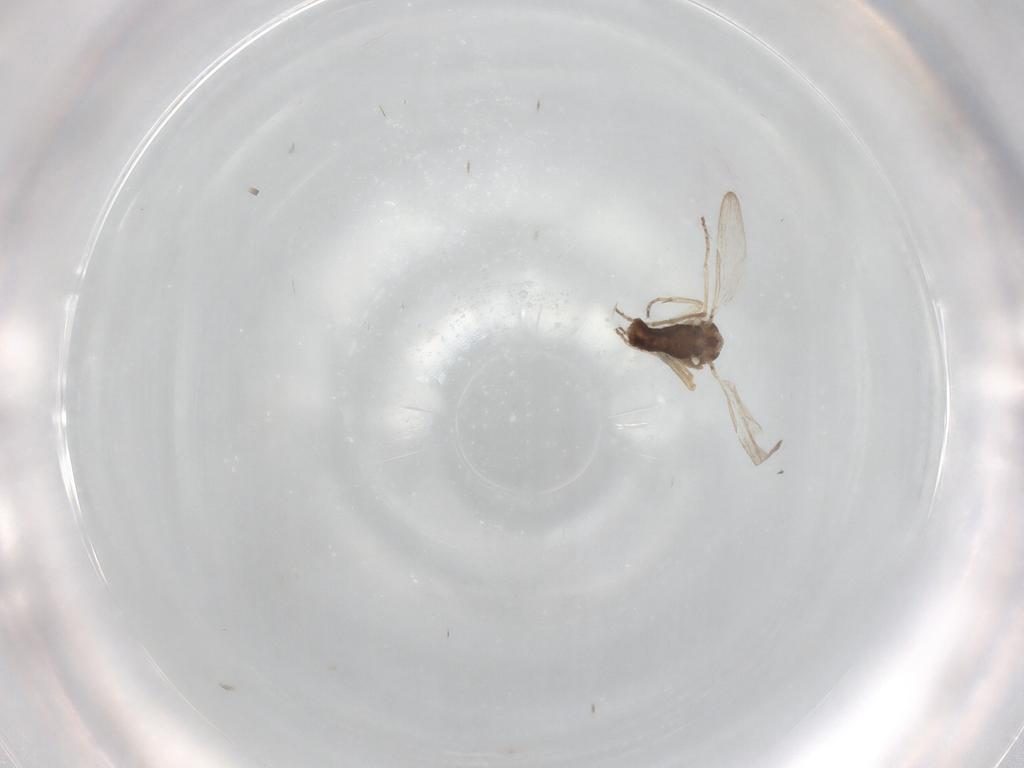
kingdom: Animalia
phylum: Arthropoda
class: Insecta
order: Diptera
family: Ceratopogonidae
